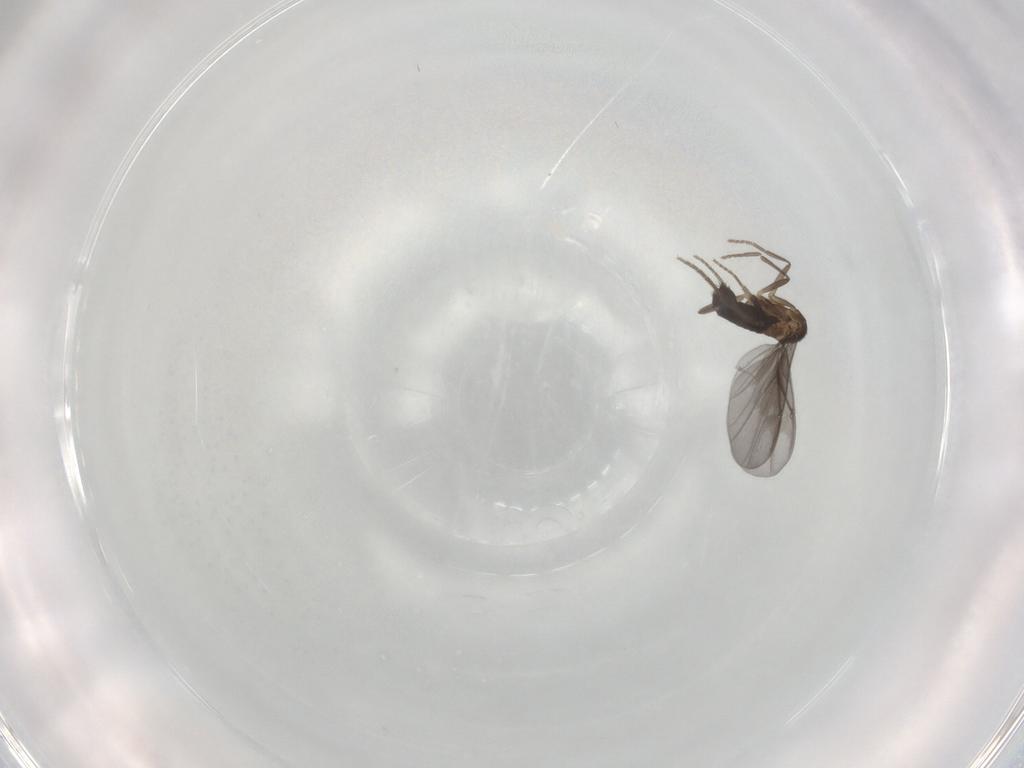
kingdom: Animalia
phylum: Arthropoda
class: Insecta
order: Diptera
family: Phoridae
